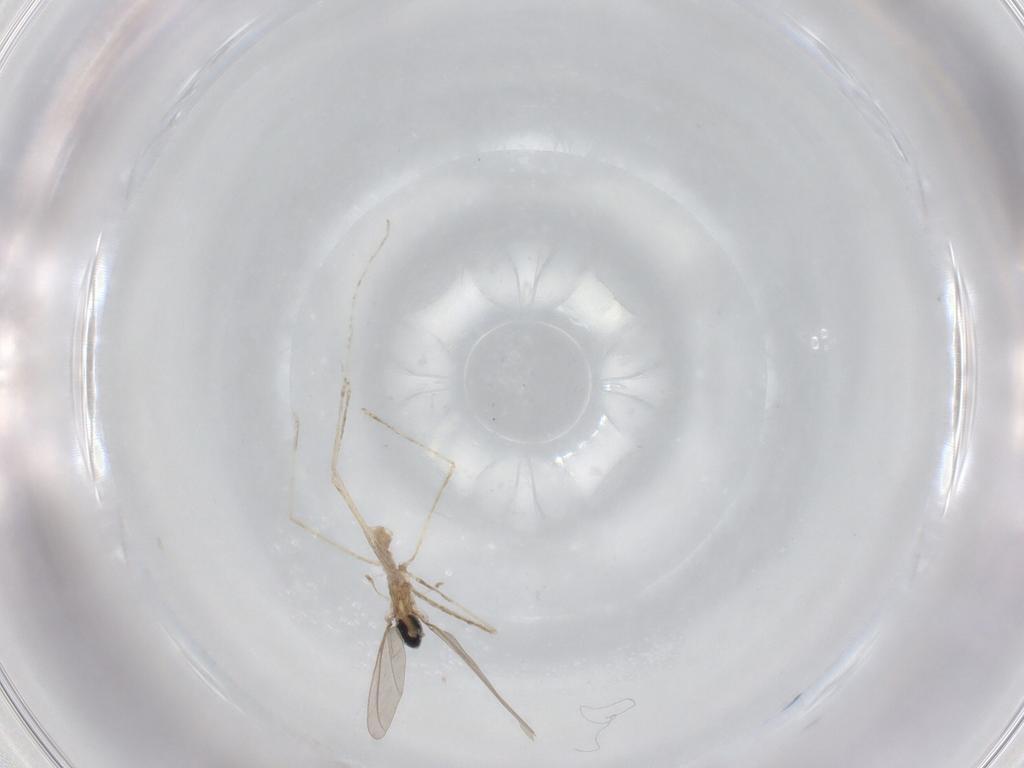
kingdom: Animalia
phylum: Arthropoda
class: Insecta
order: Diptera
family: Cecidomyiidae
